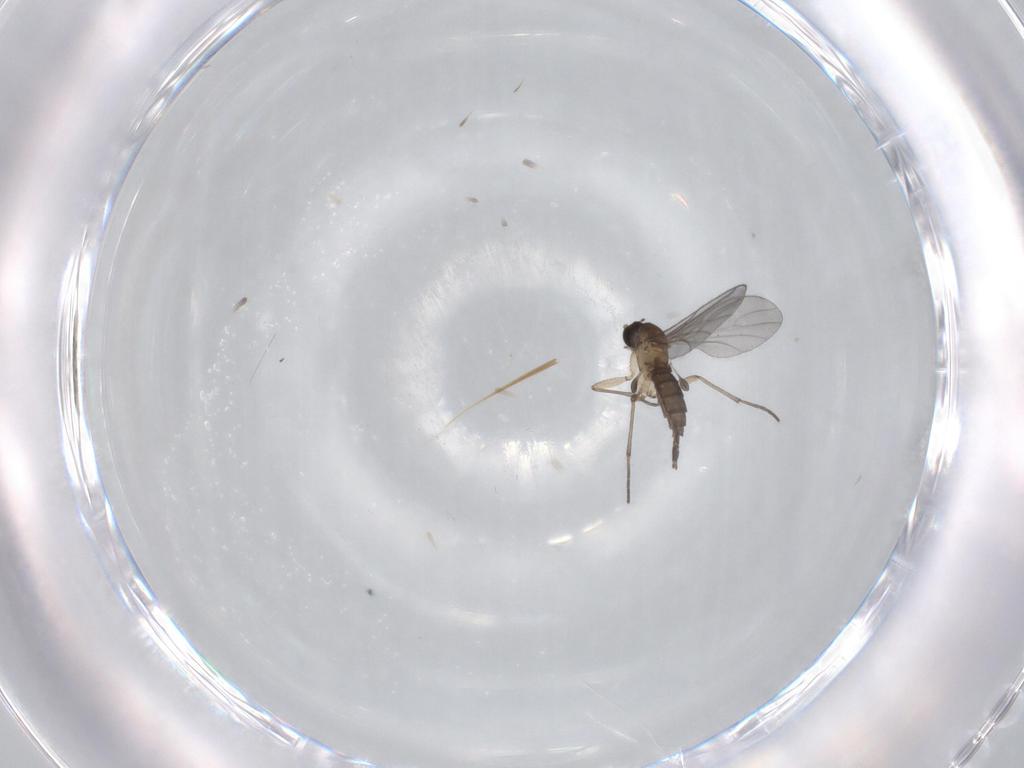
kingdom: Animalia
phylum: Arthropoda
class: Insecta
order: Diptera
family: Sciaridae
